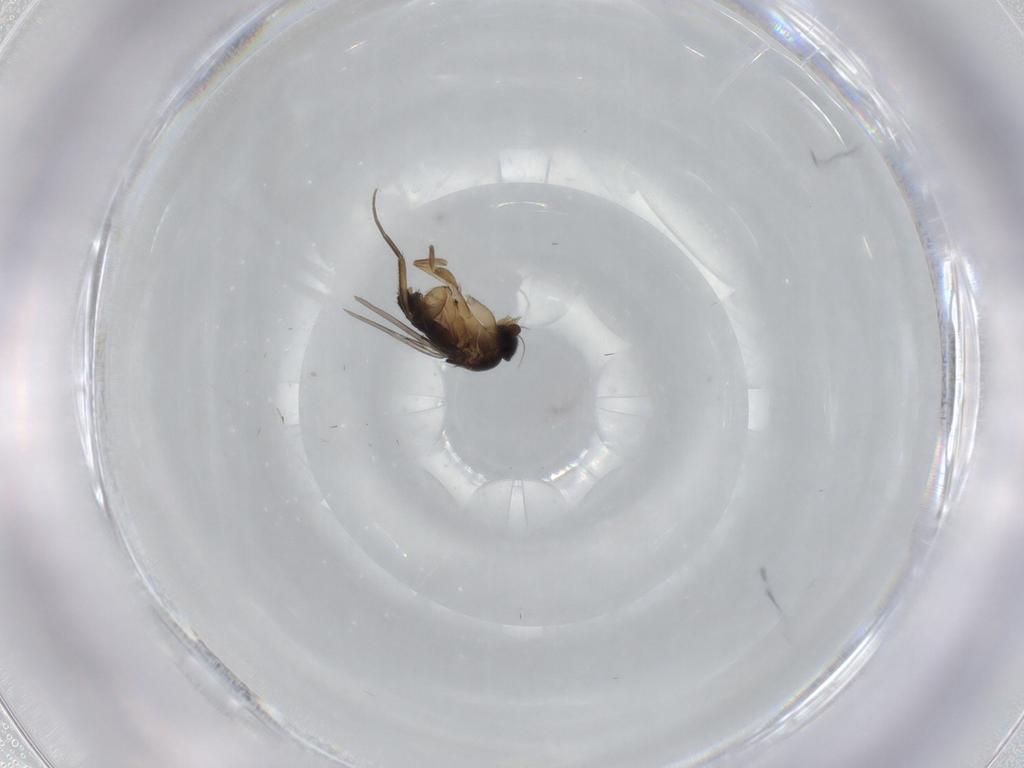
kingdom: Animalia
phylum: Arthropoda
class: Insecta
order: Diptera
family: Phoridae
